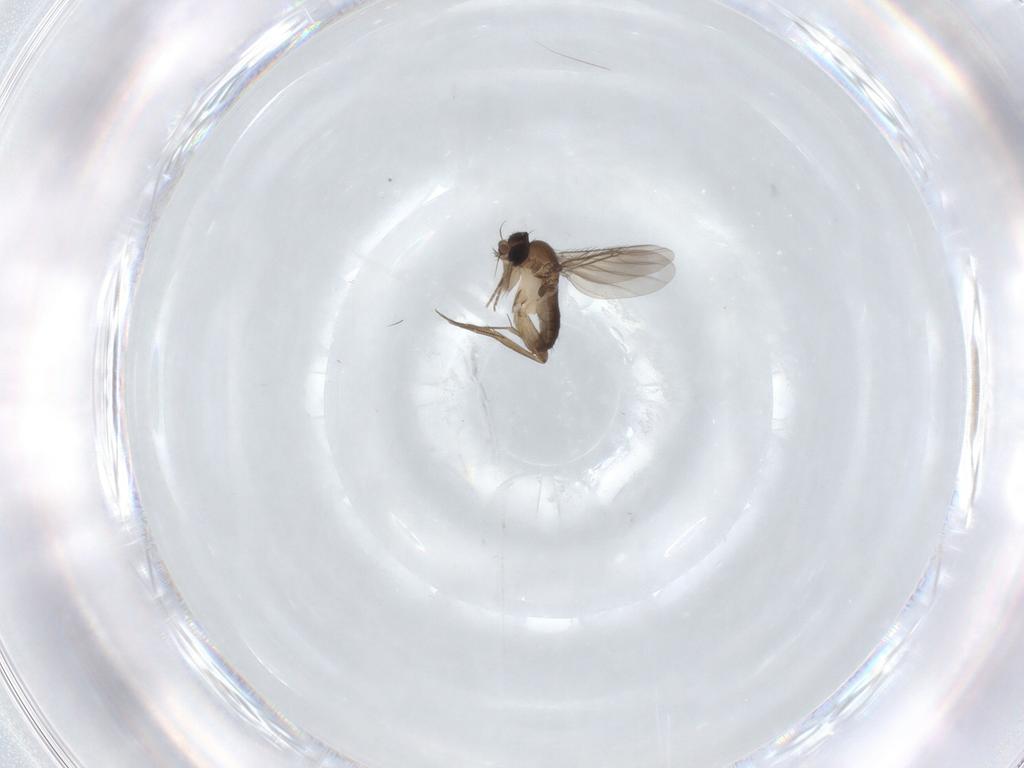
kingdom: Animalia
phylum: Arthropoda
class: Insecta
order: Diptera
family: Phoridae
